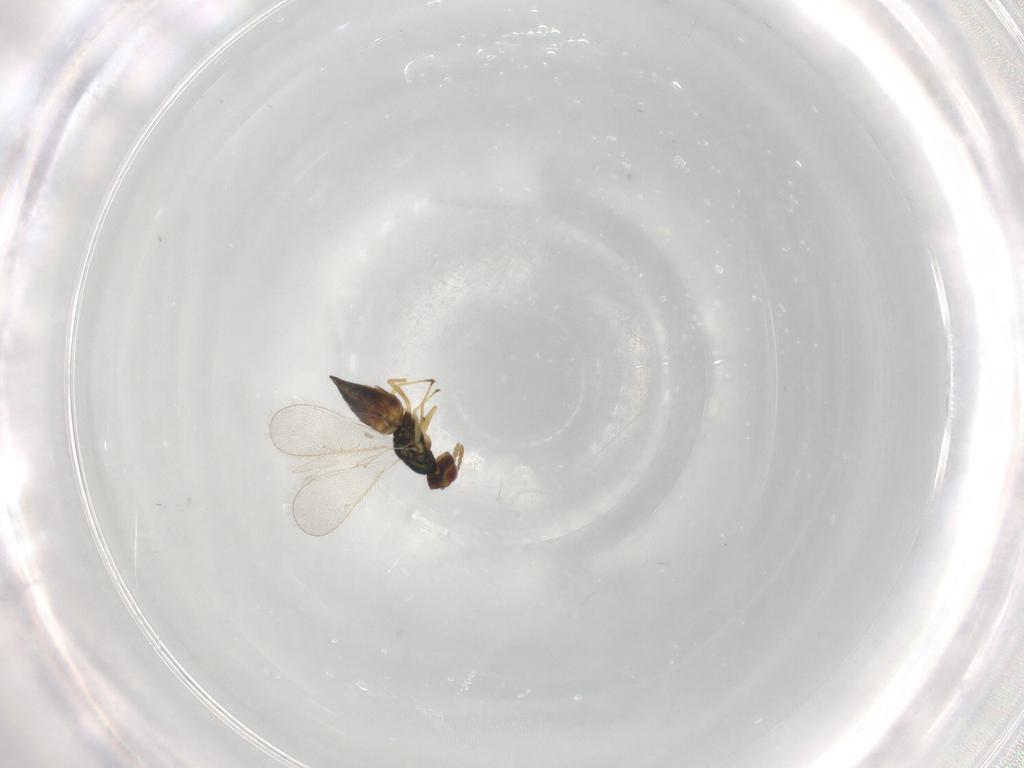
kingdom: Animalia
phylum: Arthropoda
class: Insecta
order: Hymenoptera
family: Eulophidae
